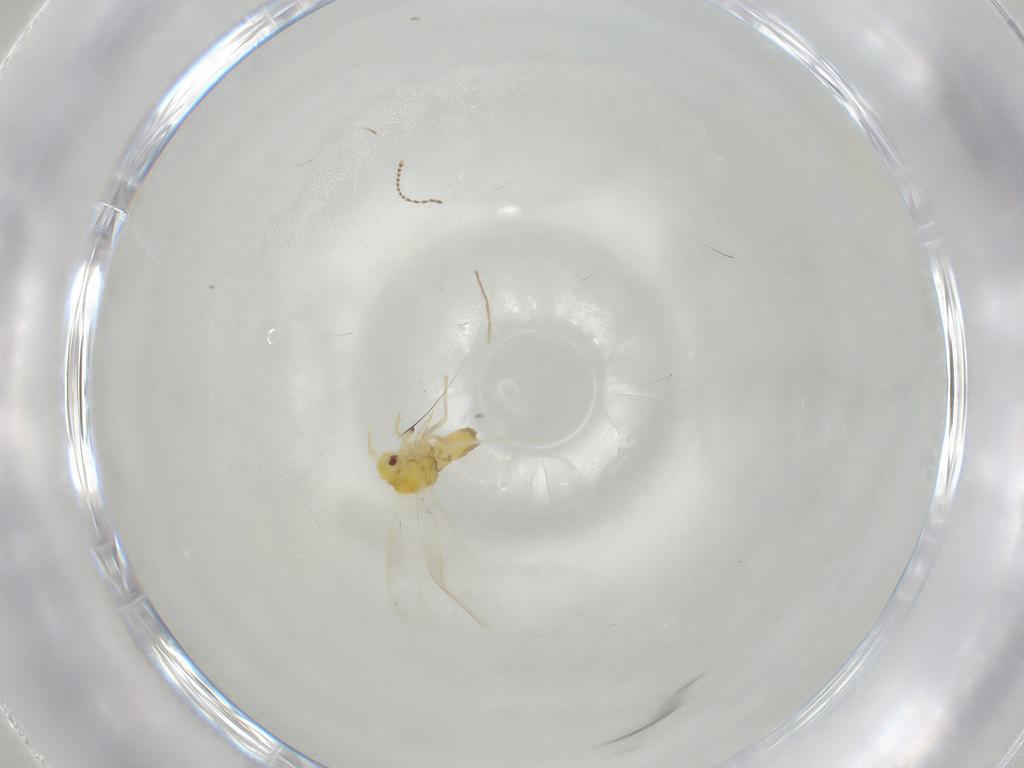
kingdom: Animalia
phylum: Arthropoda
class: Insecta
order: Hemiptera
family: Aleyrodidae
